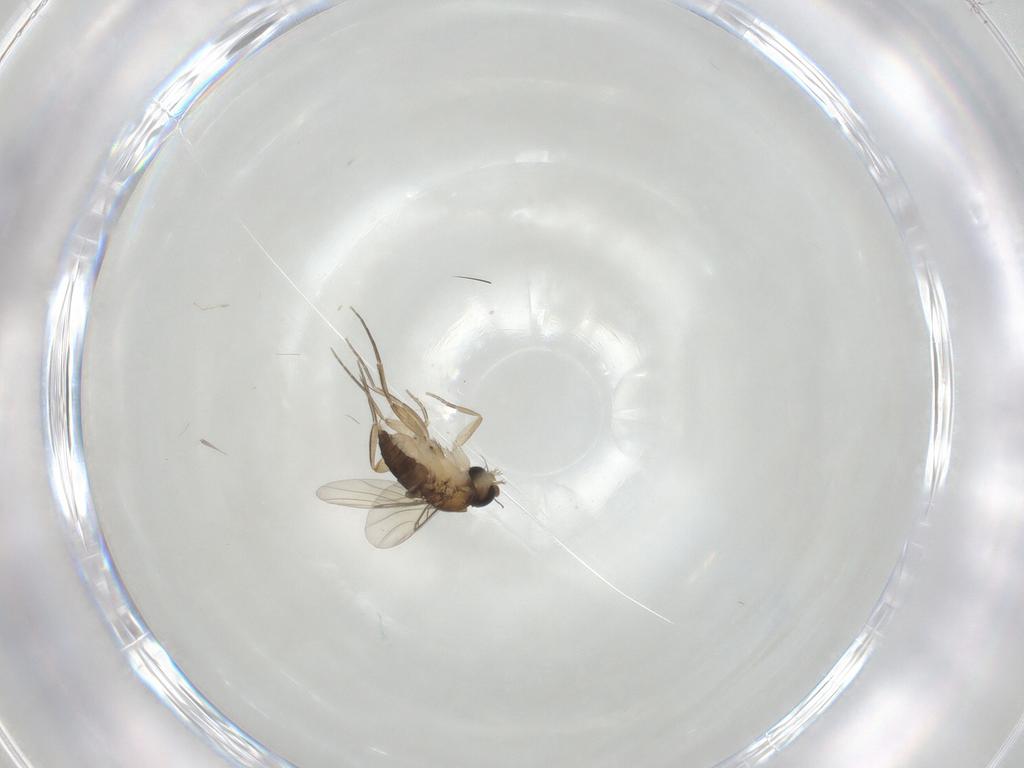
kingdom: Animalia
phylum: Arthropoda
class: Insecta
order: Diptera
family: Phoridae
